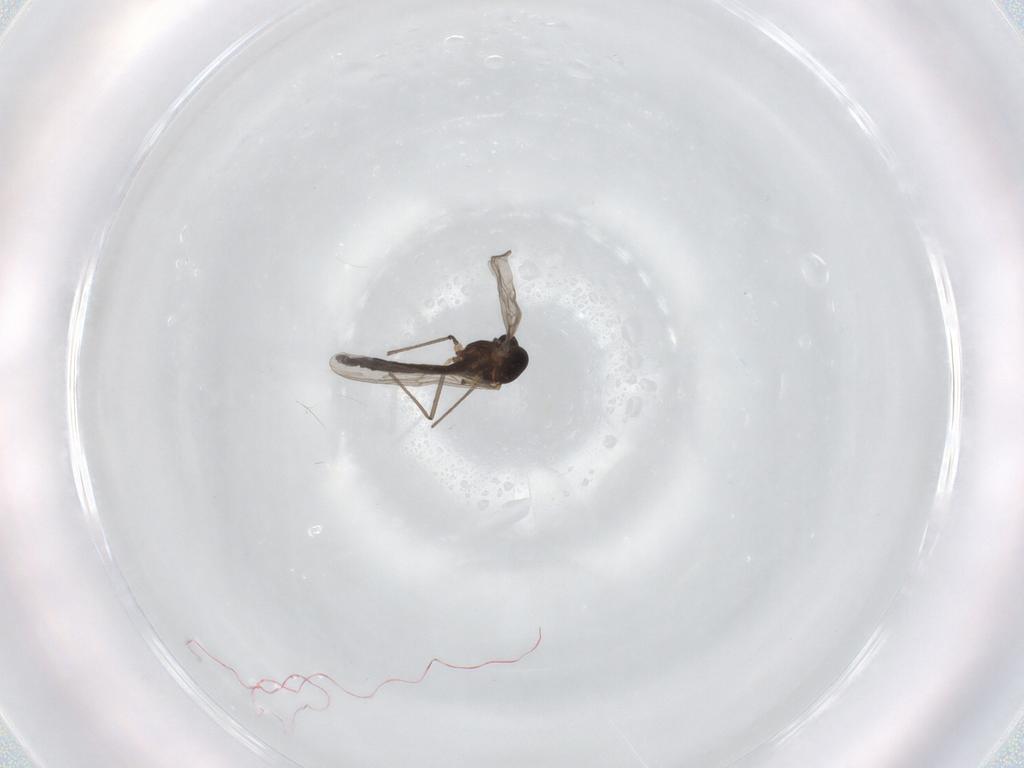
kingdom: Animalia
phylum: Arthropoda
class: Insecta
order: Diptera
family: Chironomidae
